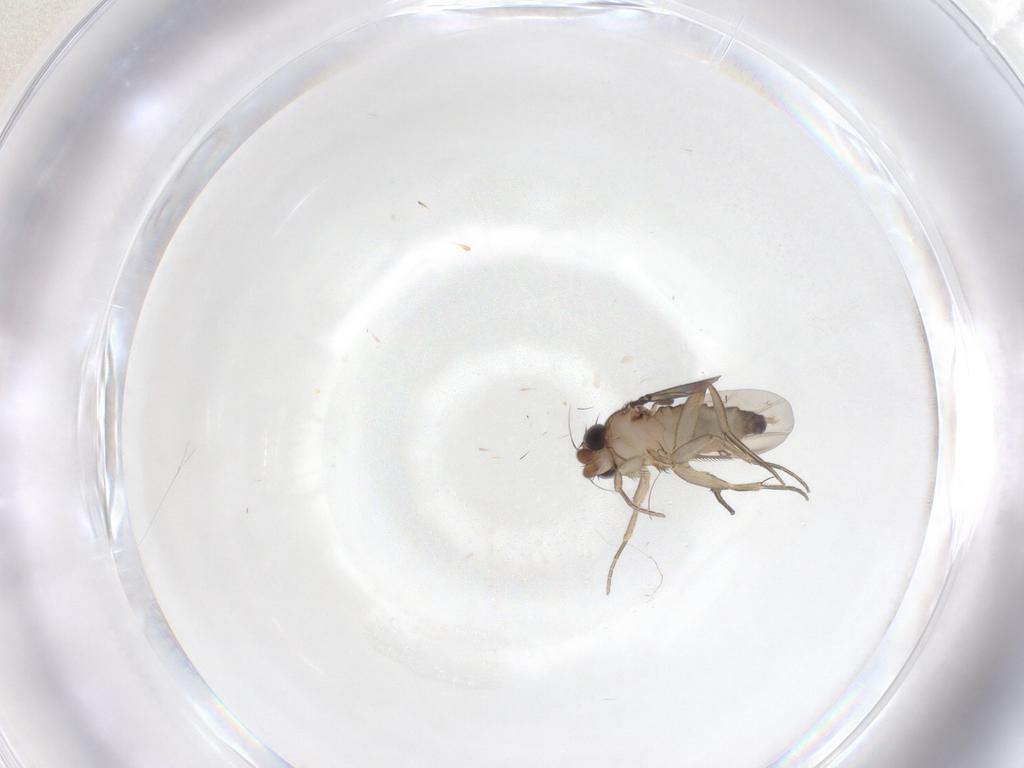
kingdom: Animalia
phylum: Arthropoda
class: Insecta
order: Diptera
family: Phoridae
